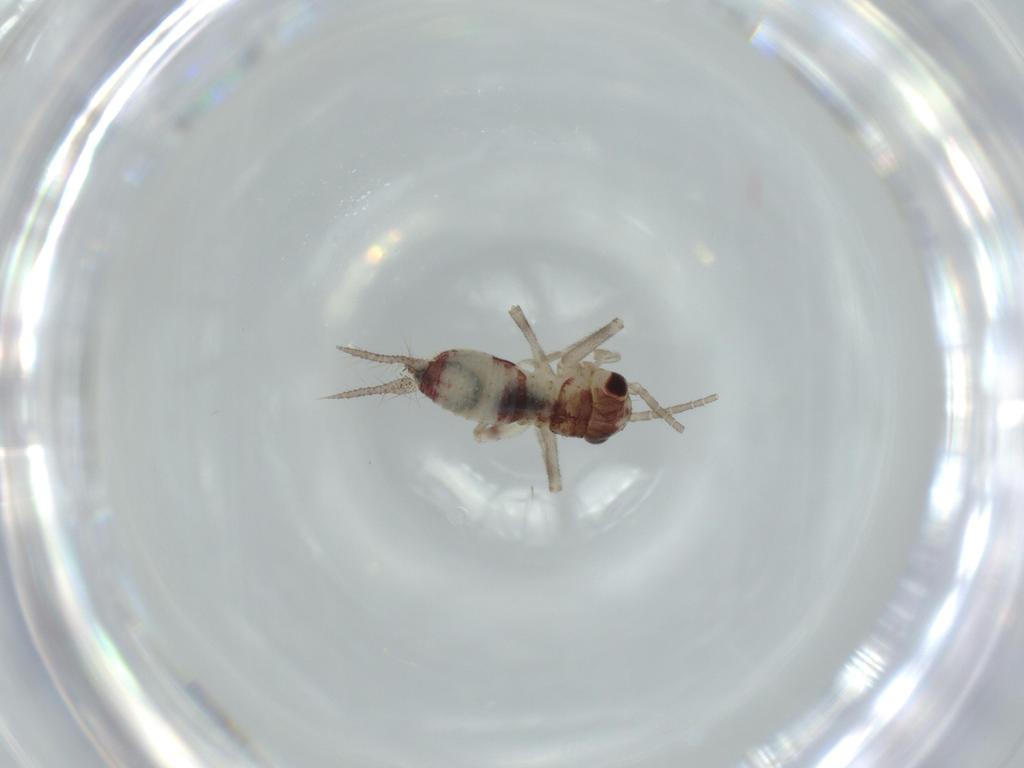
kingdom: Animalia
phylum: Arthropoda
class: Insecta
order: Orthoptera
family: Trigonidiidae
